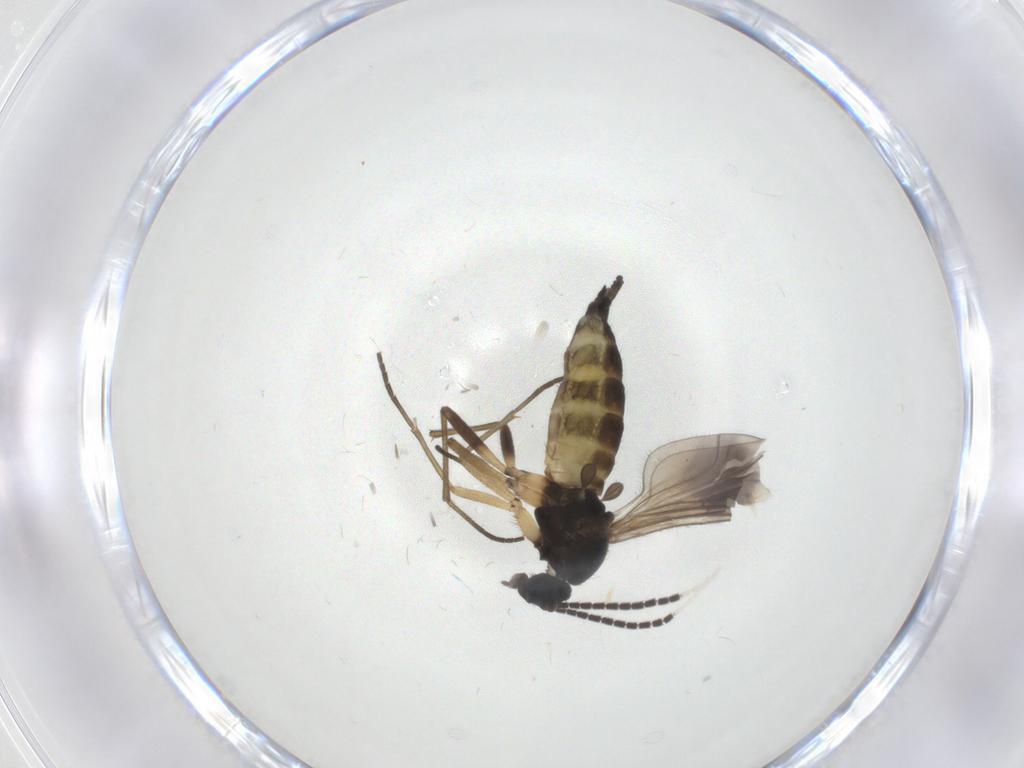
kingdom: Animalia
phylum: Arthropoda
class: Insecta
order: Diptera
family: Sciaridae
